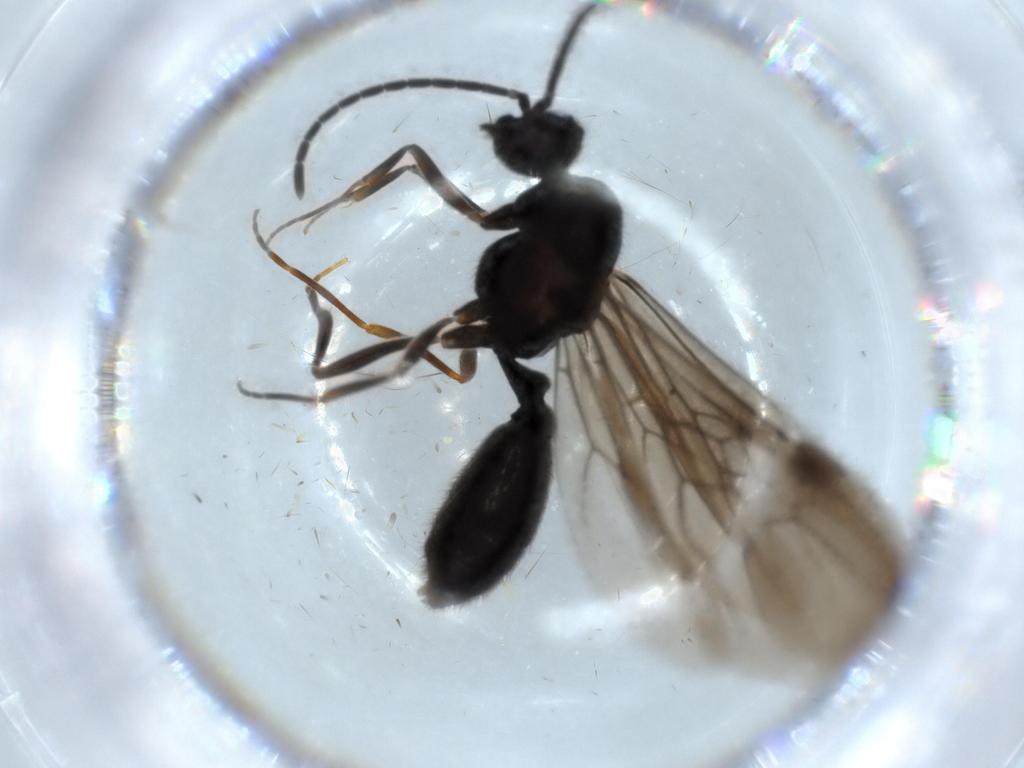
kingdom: Animalia
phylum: Arthropoda
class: Insecta
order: Hymenoptera
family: Formicidae
